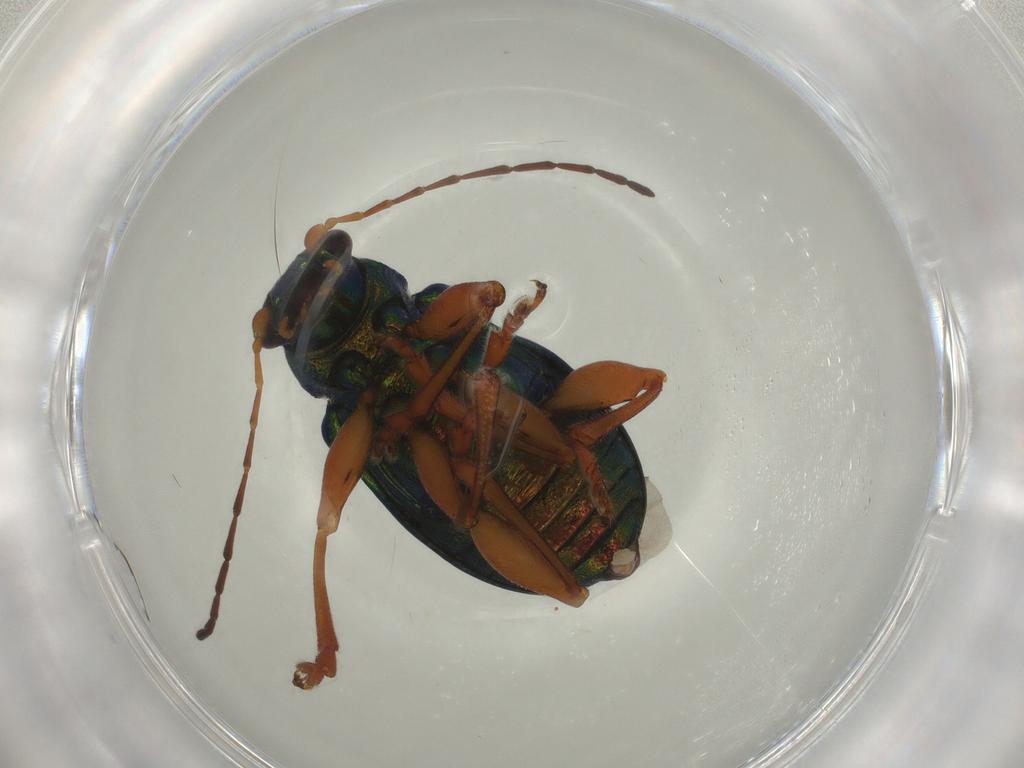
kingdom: Animalia
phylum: Arthropoda
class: Insecta
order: Coleoptera
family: Chrysomelidae
